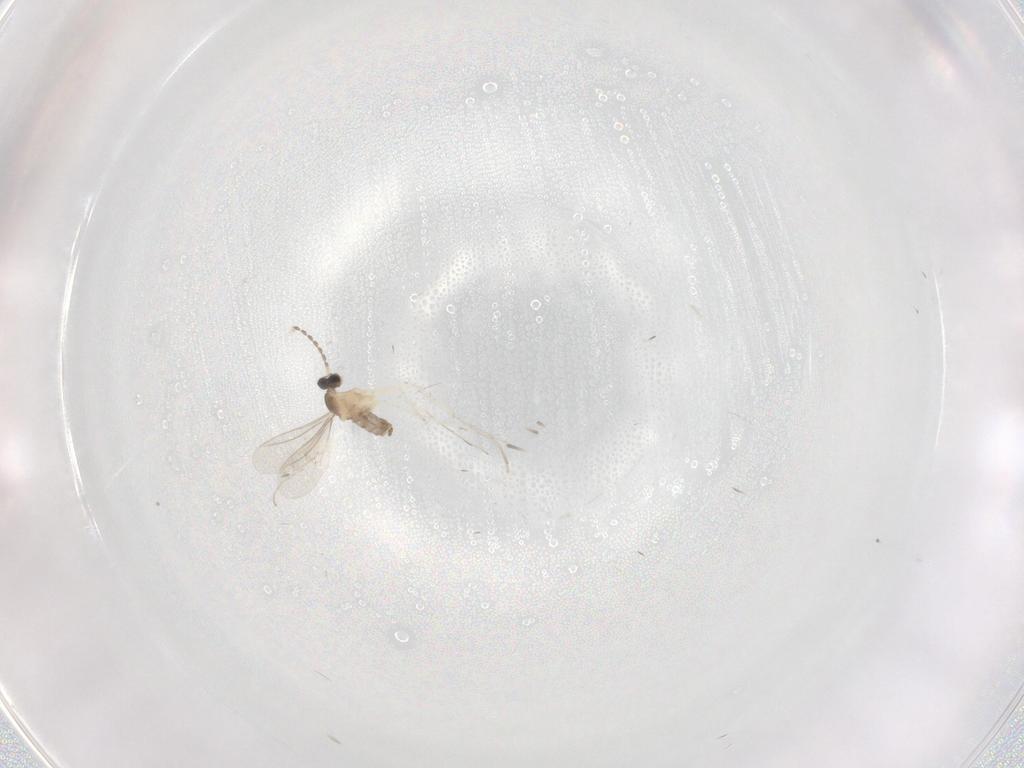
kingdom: Animalia
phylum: Arthropoda
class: Insecta
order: Diptera
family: Cecidomyiidae
